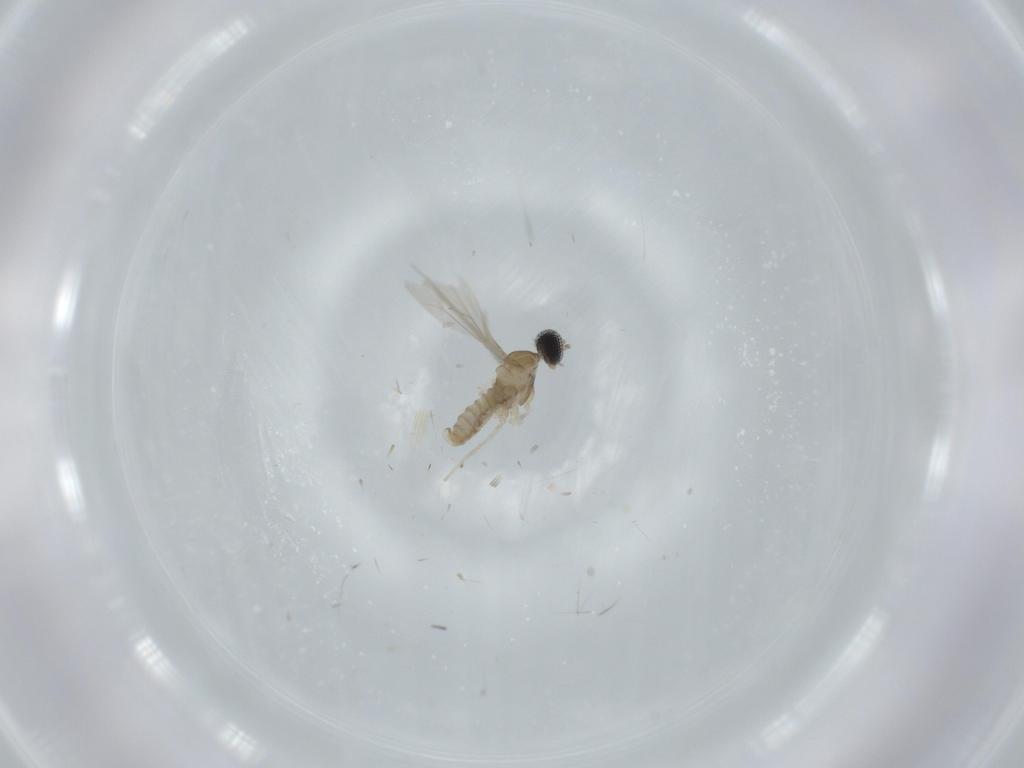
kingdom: Animalia
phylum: Arthropoda
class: Insecta
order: Diptera
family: Cecidomyiidae
